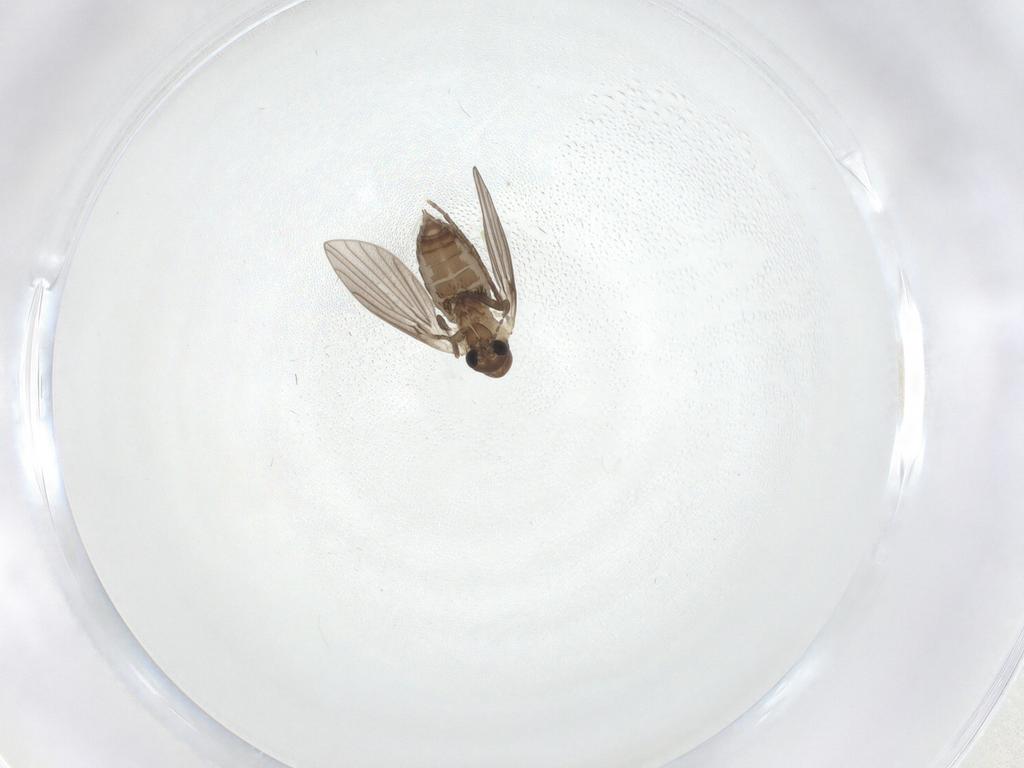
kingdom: Animalia
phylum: Arthropoda
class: Insecta
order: Diptera
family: Psychodidae
